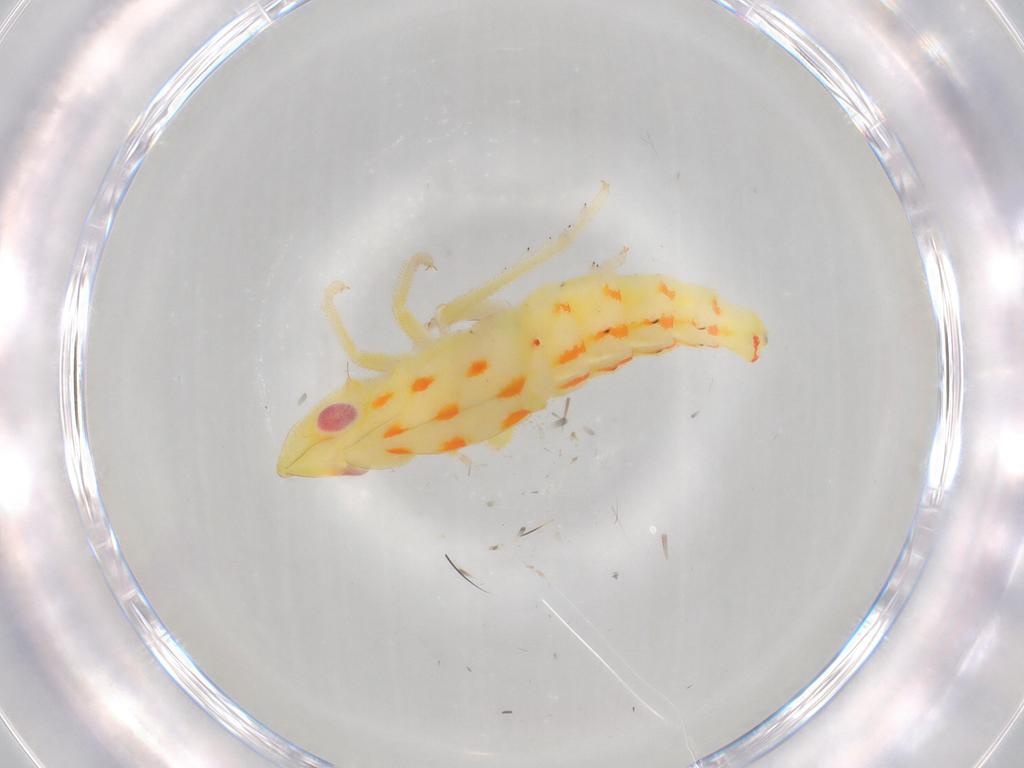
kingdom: Animalia
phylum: Arthropoda
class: Insecta
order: Hemiptera
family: Tropiduchidae
